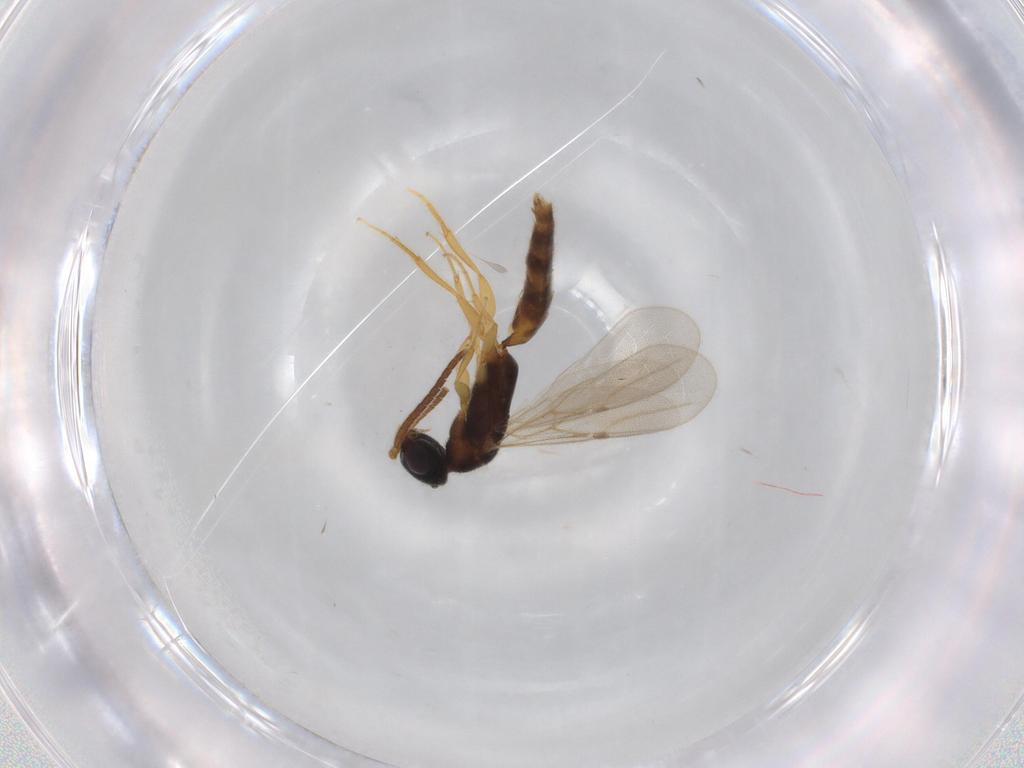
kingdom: Animalia
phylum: Arthropoda
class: Insecta
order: Hymenoptera
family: Bethylidae
